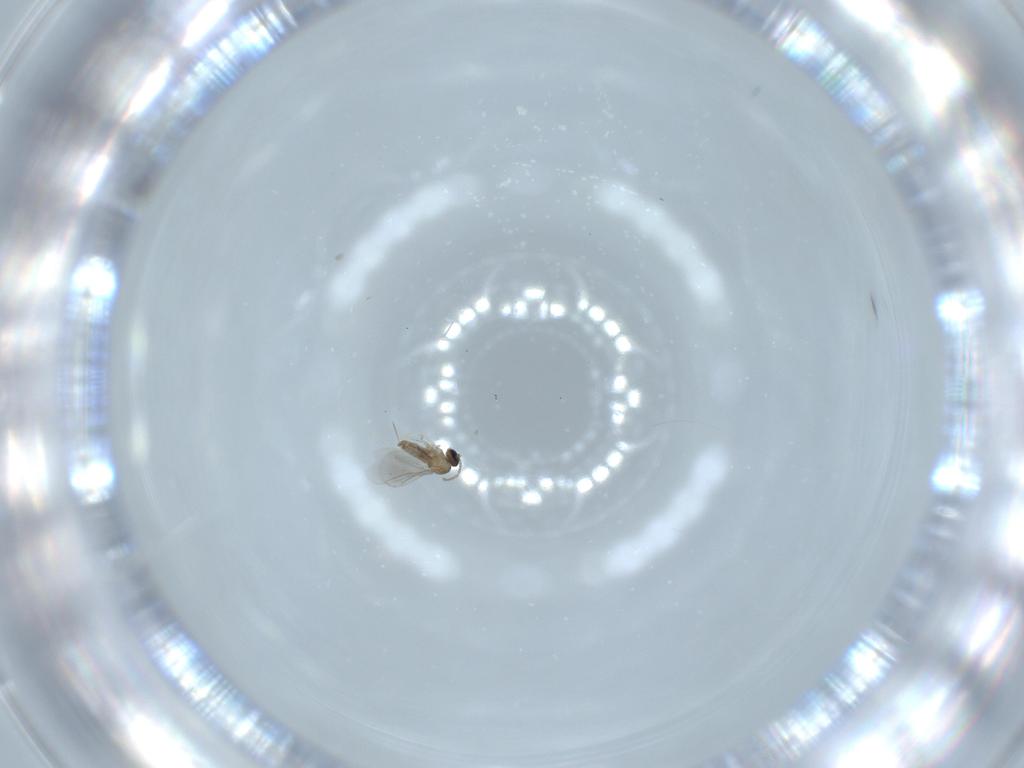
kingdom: Animalia
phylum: Arthropoda
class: Insecta
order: Diptera
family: Cecidomyiidae
